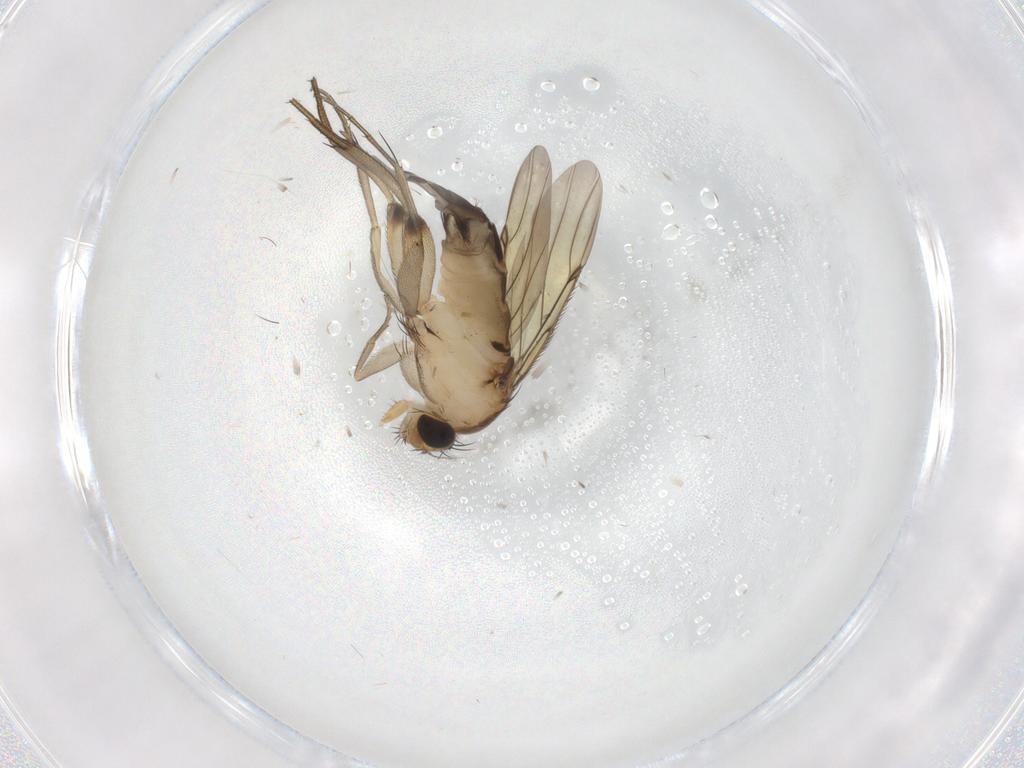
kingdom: Animalia
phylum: Arthropoda
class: Insecta
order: Diptera
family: Phoridae
